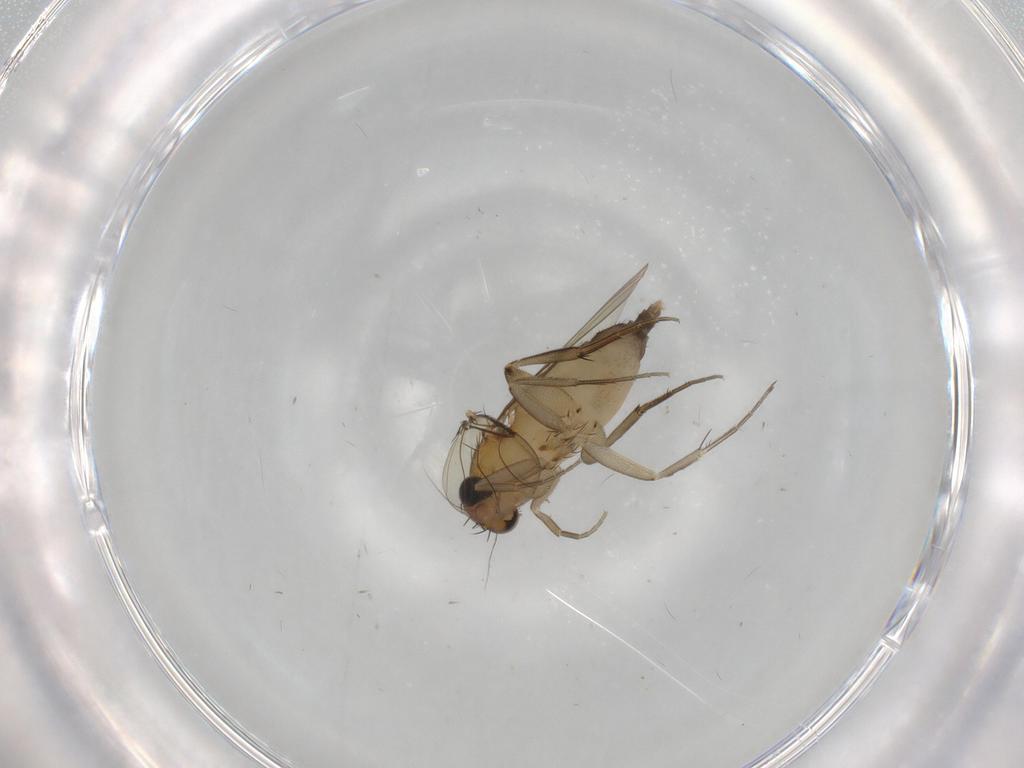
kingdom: Animalia
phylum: Arthropoda
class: Insecta
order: Diptera
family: Phoridae
